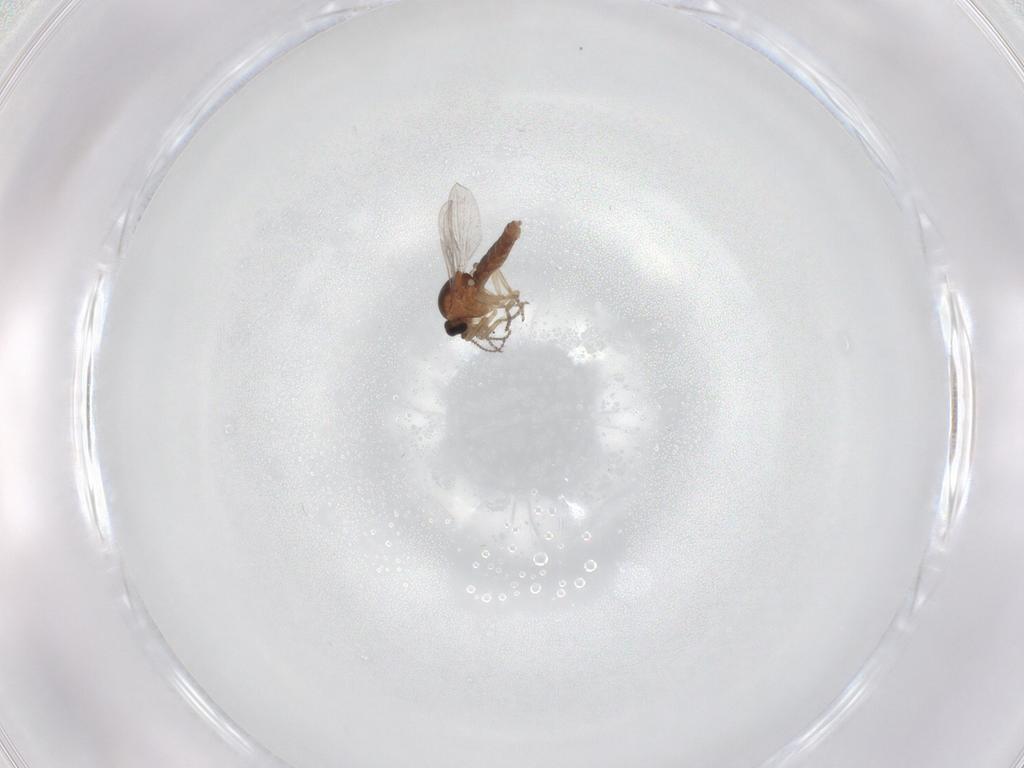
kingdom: Animalia
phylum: Arthropoda
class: Insecta
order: Diptera
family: Ceratopogonidae
